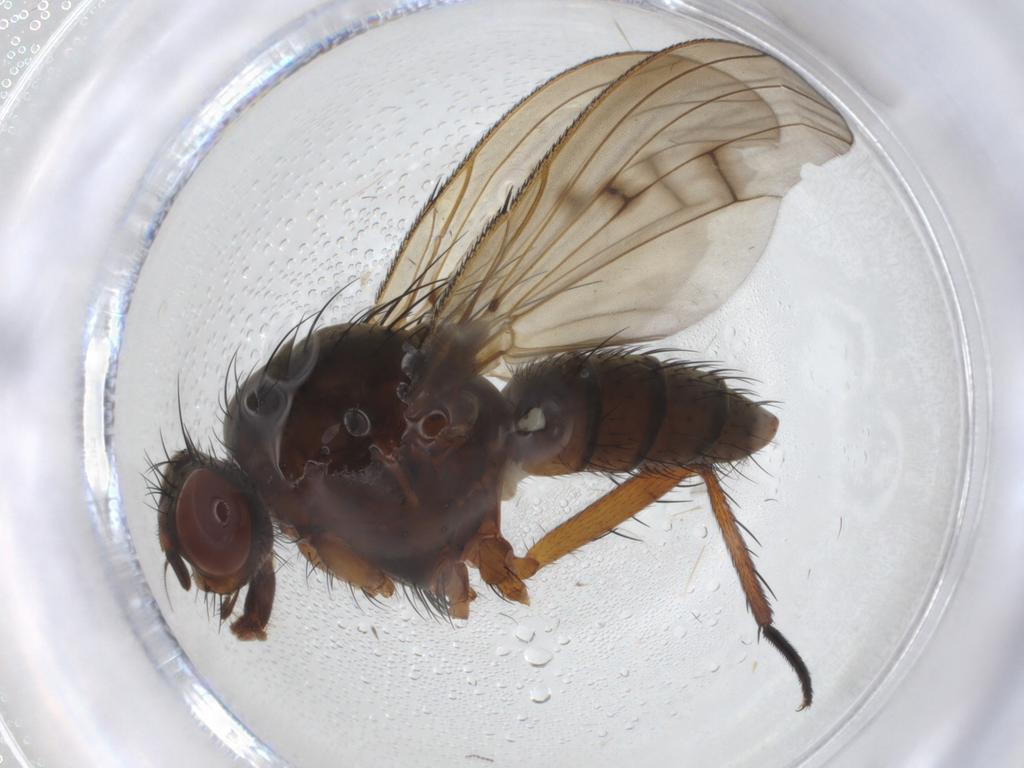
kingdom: Animalia
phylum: Arthropoda
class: Insecta
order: Diptera
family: Anthomyiidae
